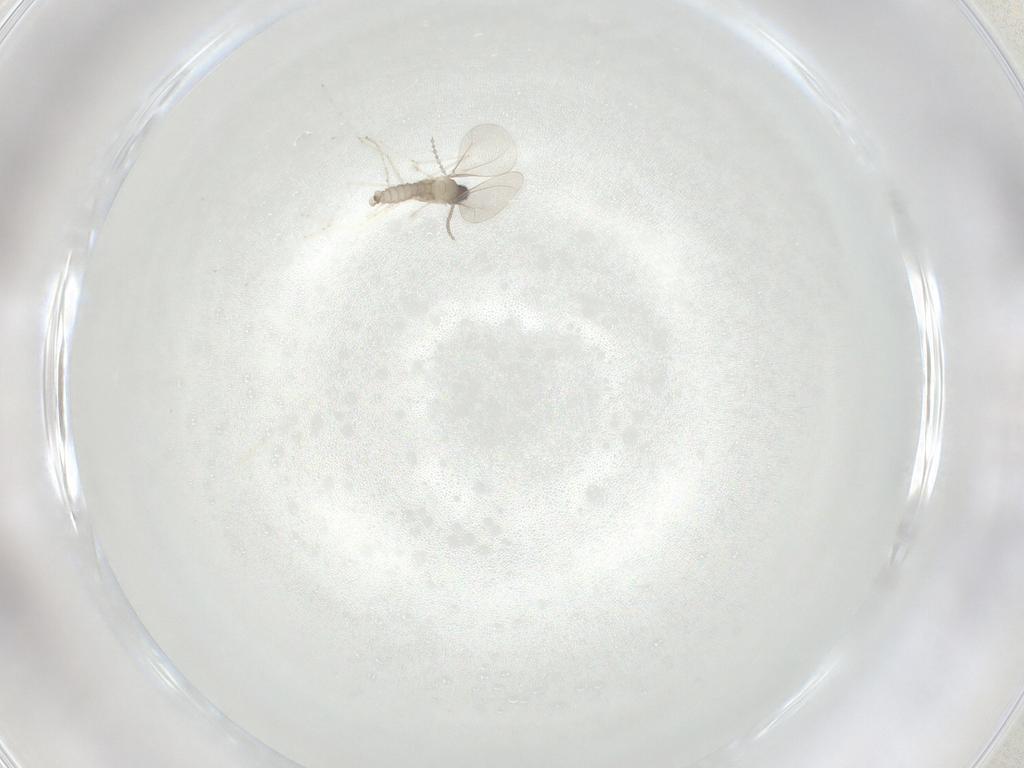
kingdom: Animalia
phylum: Arthropoda
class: Insecta
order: Diptera
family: Cecidomyiidae
